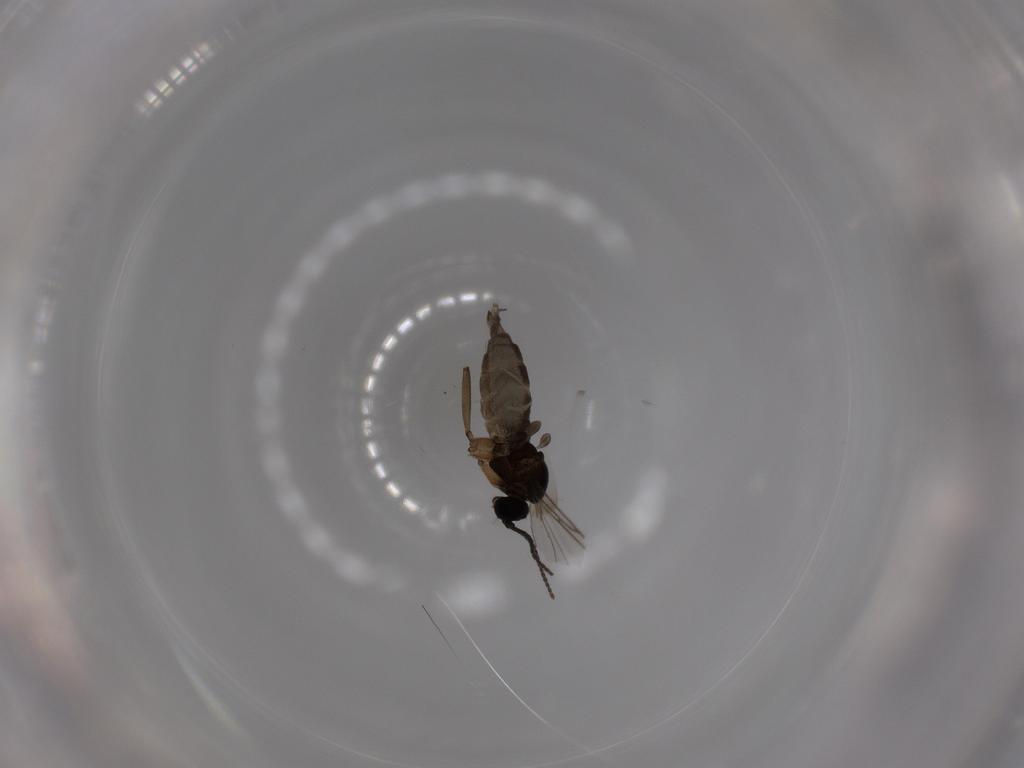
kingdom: Animalia
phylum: Arthropoda
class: Insecta
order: Diptera
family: Sciaridae
